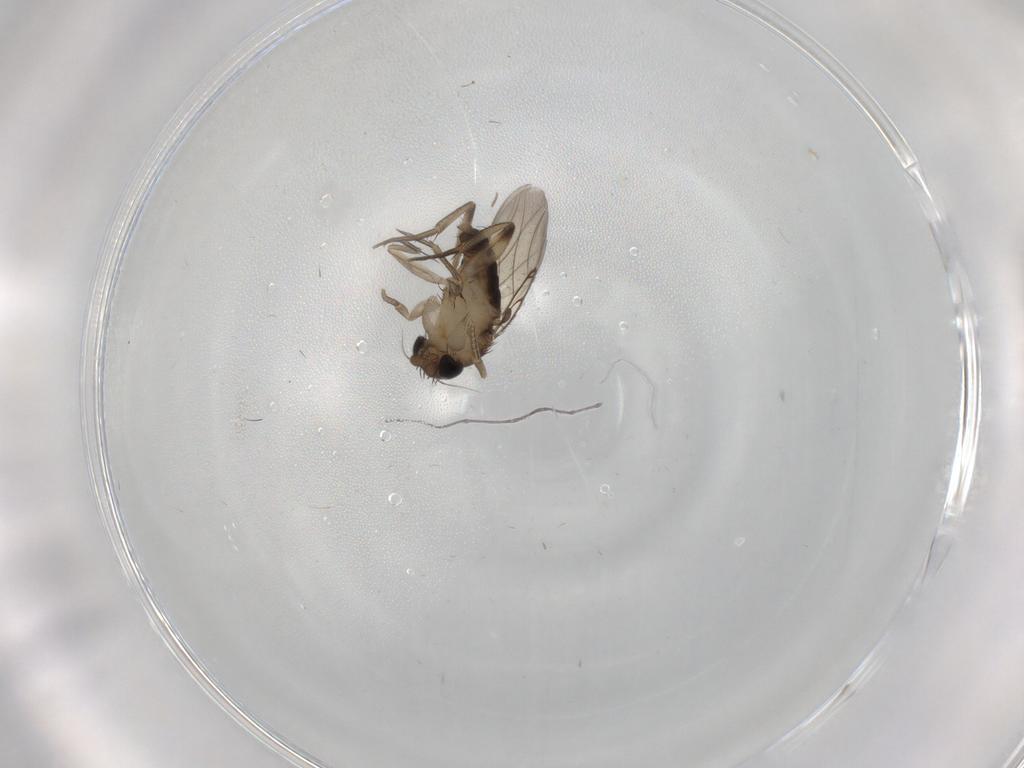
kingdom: Animalia
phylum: Arthropoda
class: Insecta
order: Diptera
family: Phoridae
